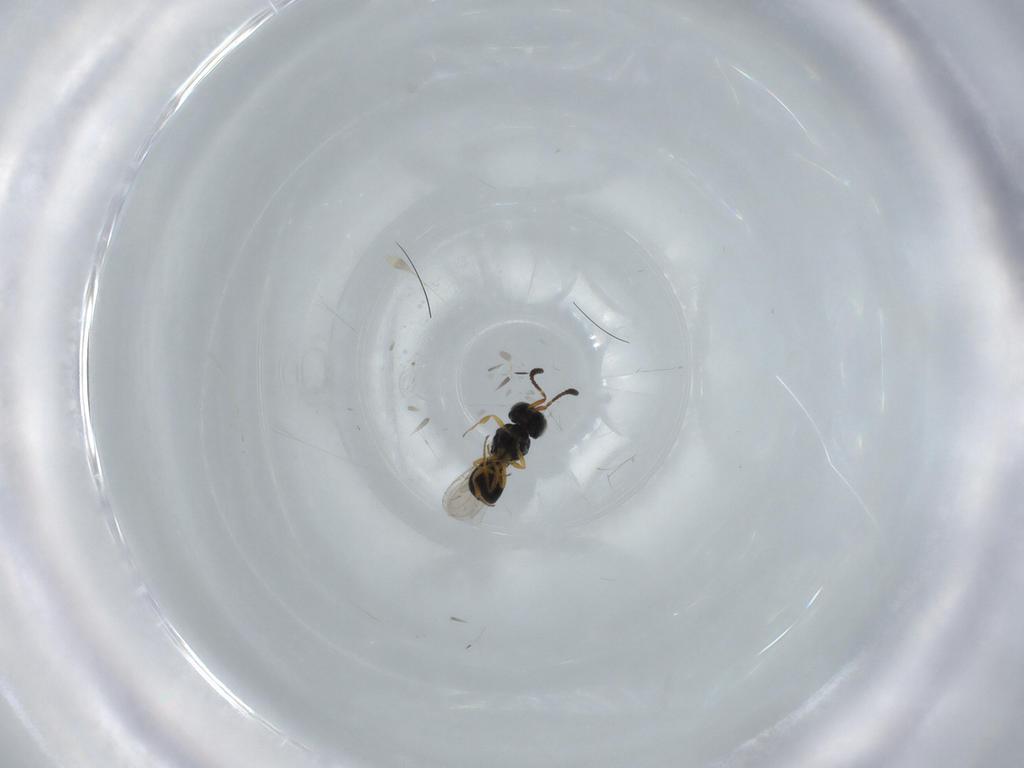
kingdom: Animalia
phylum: Arthropoda
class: Insecta
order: Hymenoptera
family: Scelionidae
